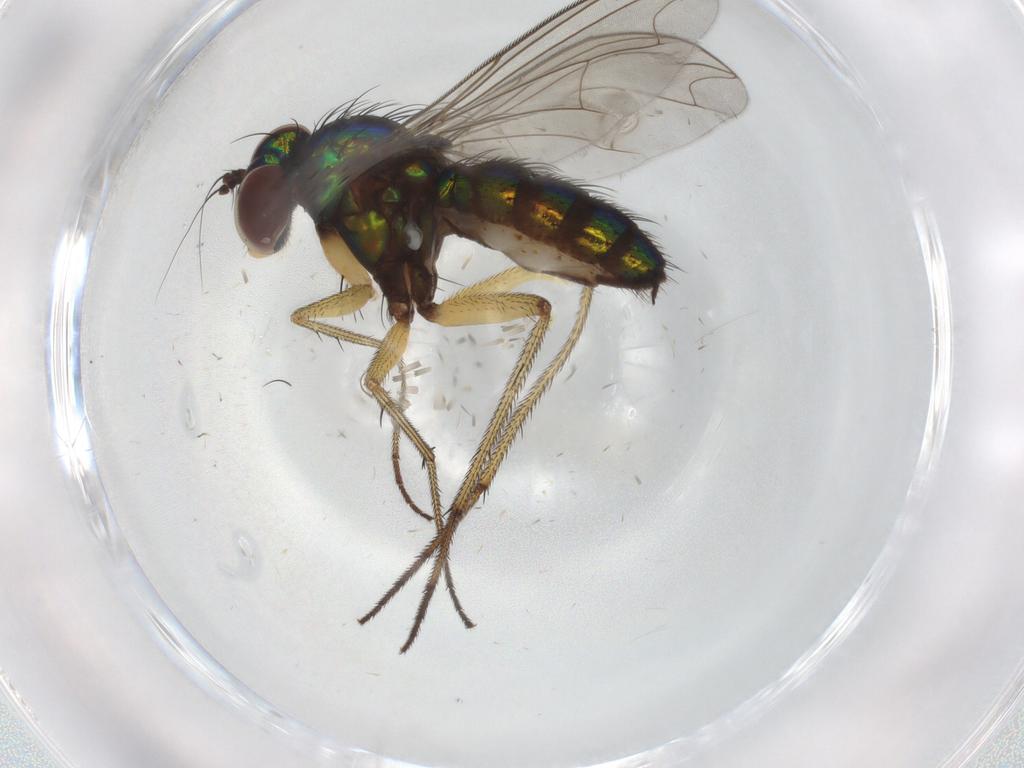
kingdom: Animalia
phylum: Arthropoda
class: Insecta
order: Diptera
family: Dolichopodidae
